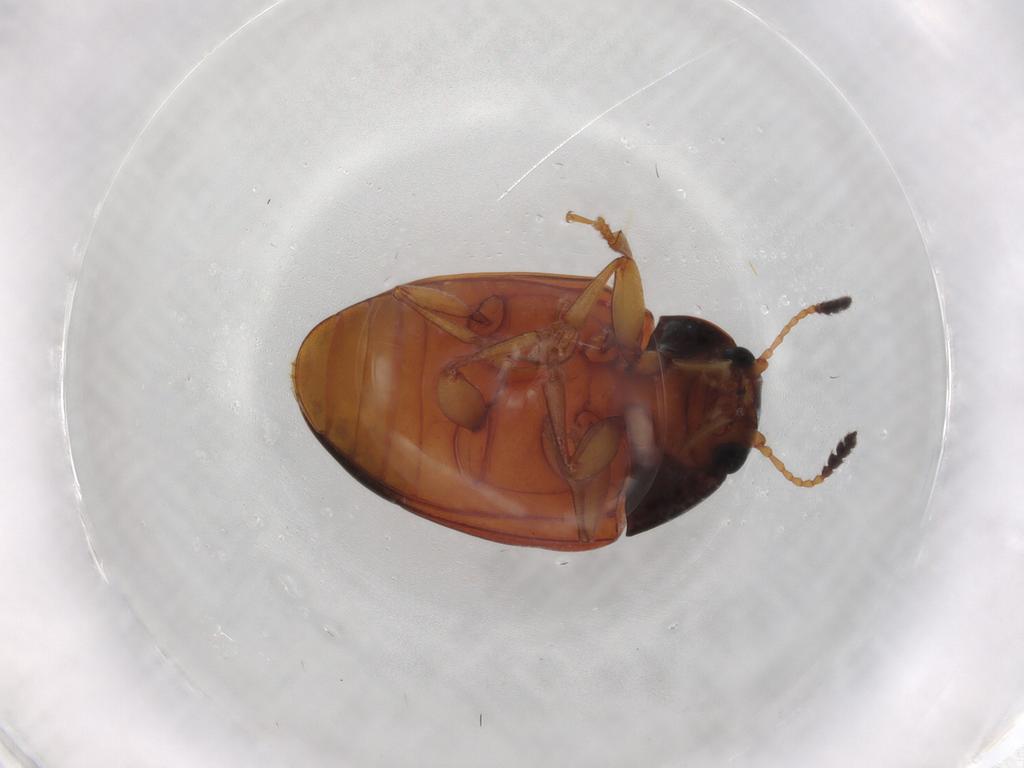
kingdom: Animalia
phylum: Arthropoda
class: Insecta
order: Coleoptera
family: Erotylidae
